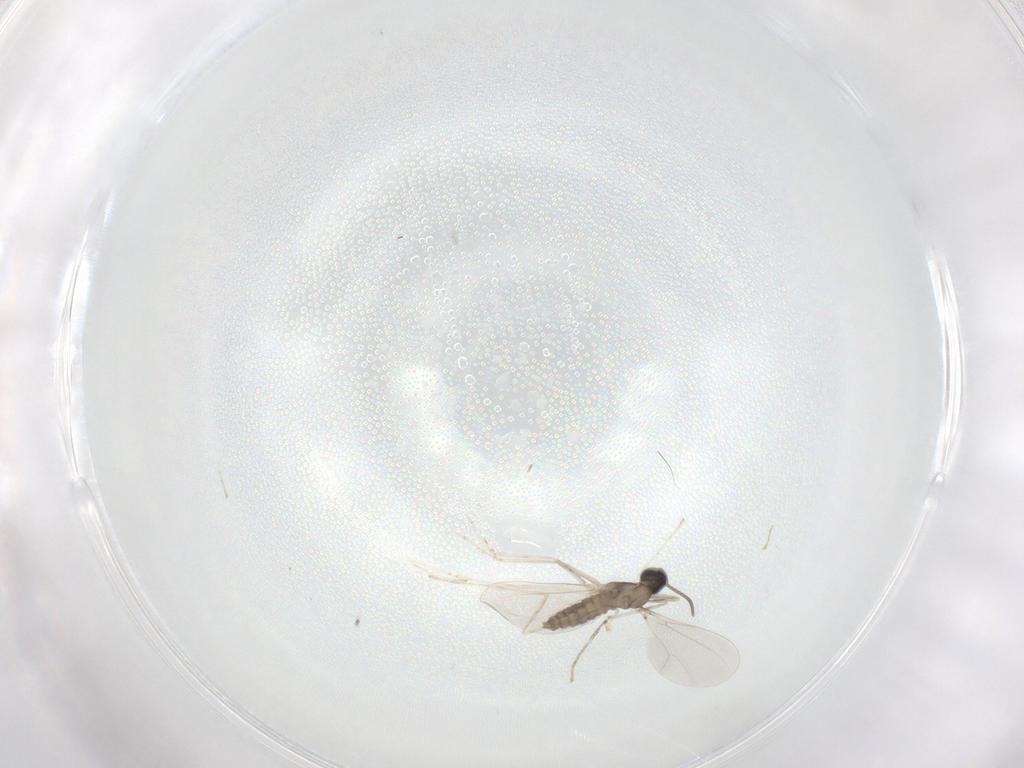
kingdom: Animalia
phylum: Arthropoda
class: Insecta
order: Diptera
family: Cecidomyiidae
